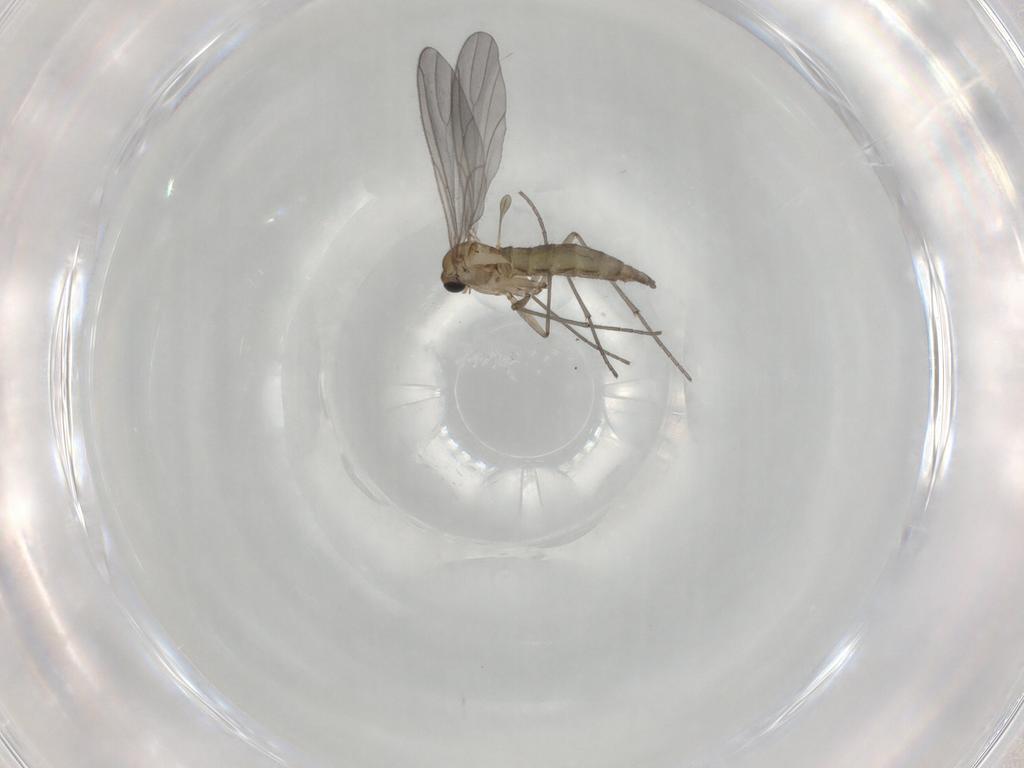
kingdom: Animalia
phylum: Arthropoda
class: Insecta
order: Diptera
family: Sciaridae
